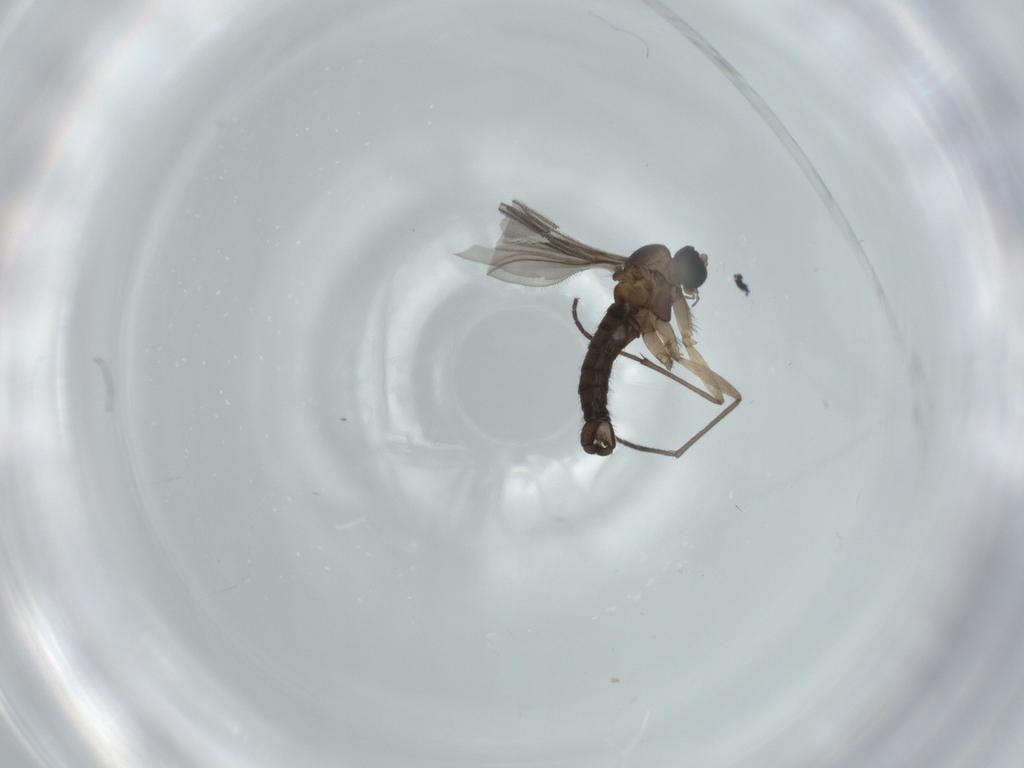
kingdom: Animalia
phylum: Arthropoda
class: Insecta
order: Diptera
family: Sciaridae
